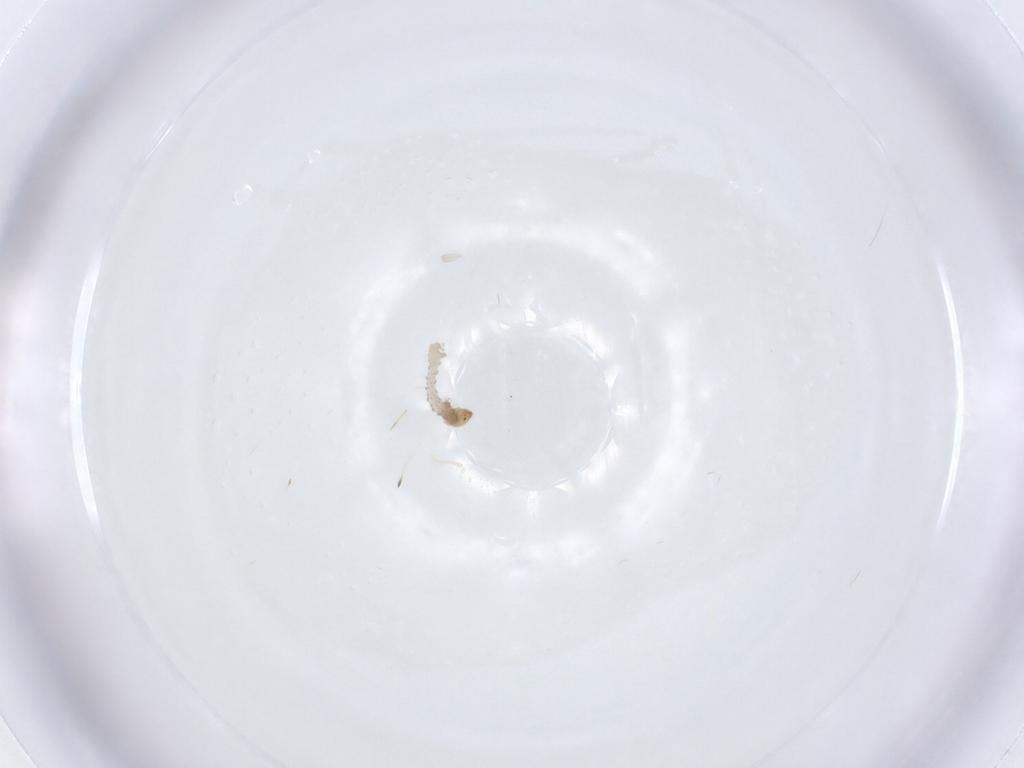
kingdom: Animalia
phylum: Arthropoda
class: Insecta
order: Lepidoptera
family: Erebidae
